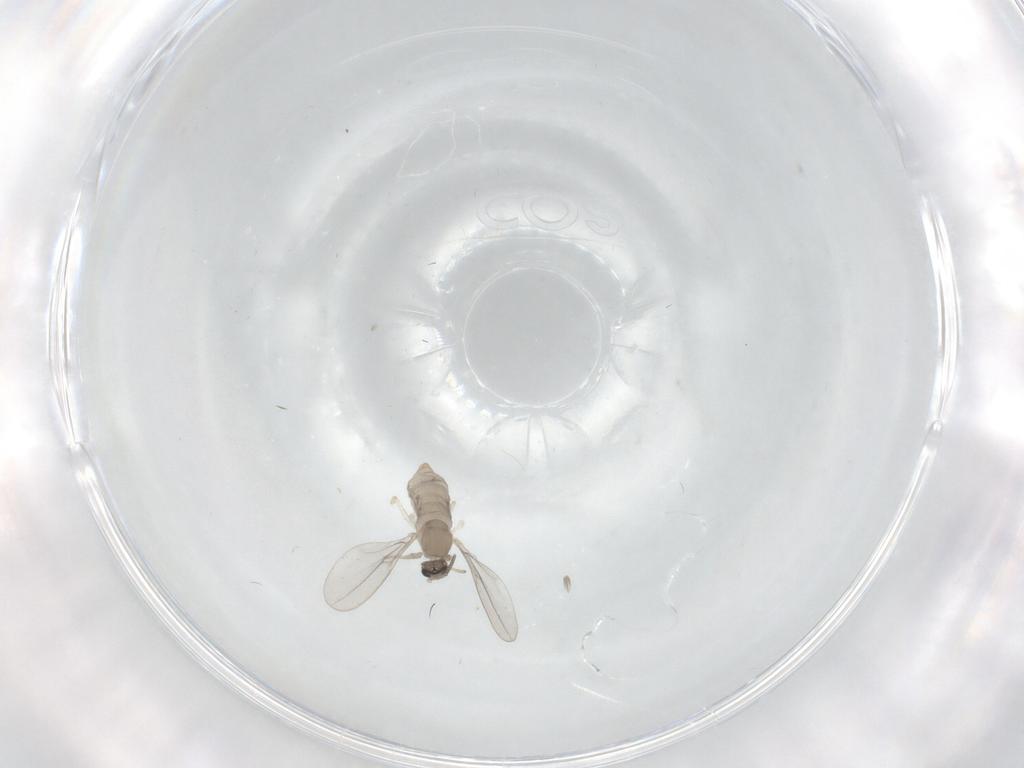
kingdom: Animalia
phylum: Arthropoda
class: Insecta
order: Diptera
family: Cecidomyiidae
